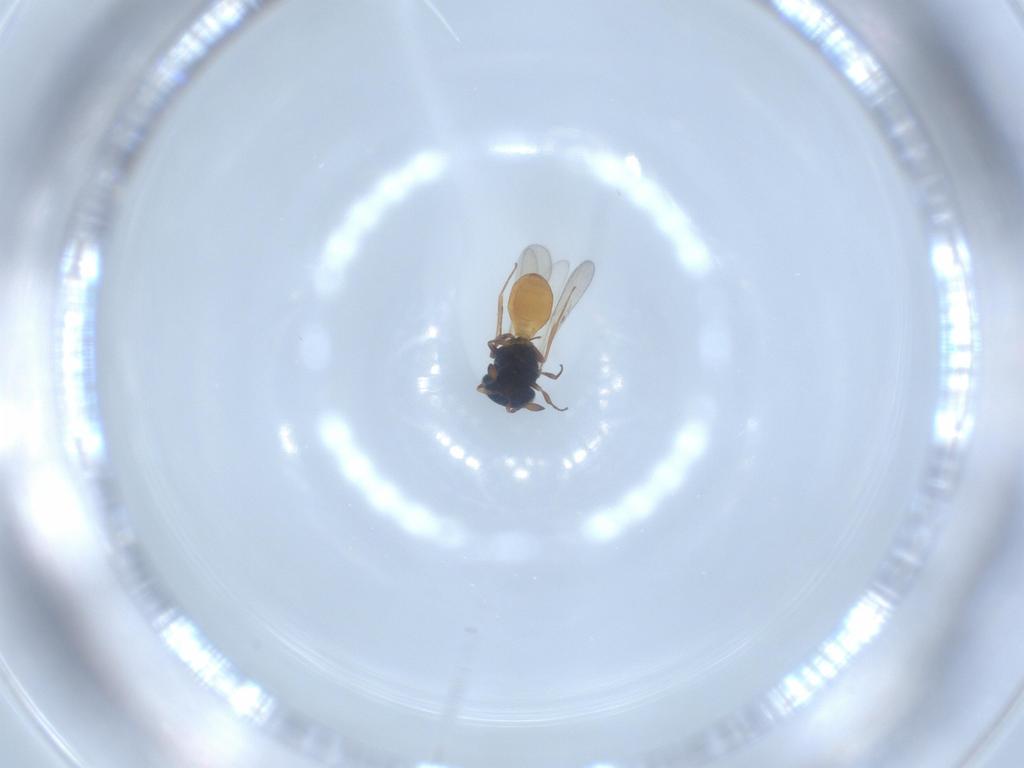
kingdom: Animalia
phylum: Arthropoda
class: Insecta
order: Hymenoptera
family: Scelionidae
